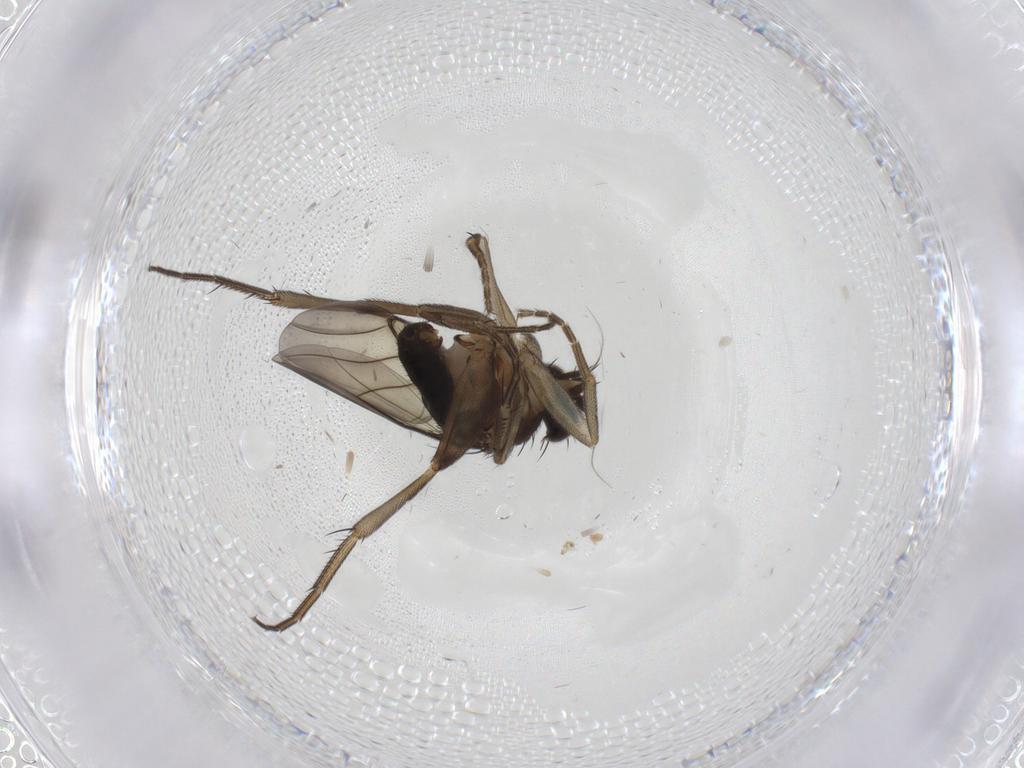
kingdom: Animalia
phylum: Arthropoda
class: Insecta
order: Diptera
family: Phoridae
